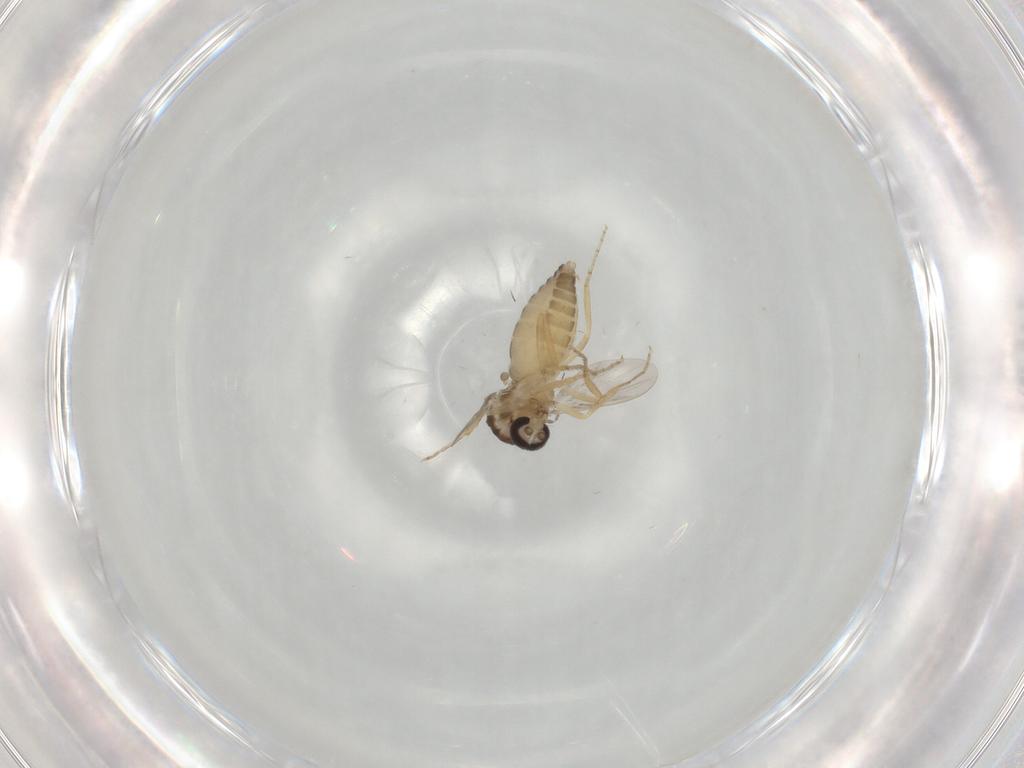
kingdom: Animalia
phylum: Arthropoda
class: Insecta
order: Diptera
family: Ceratopogonidae
